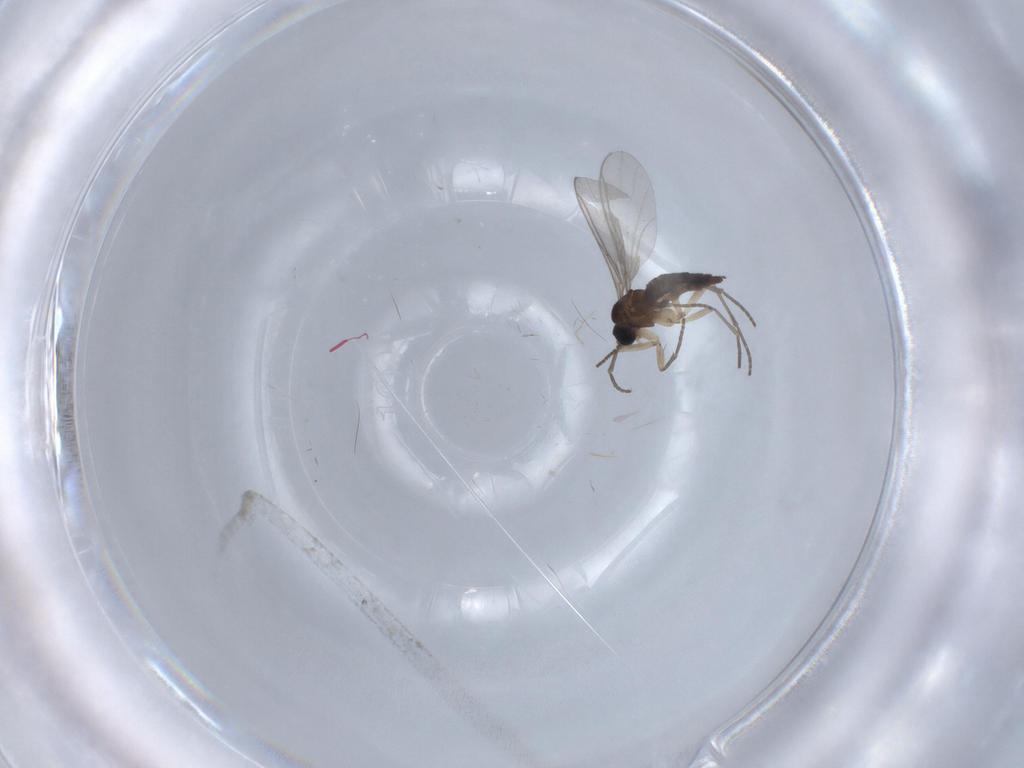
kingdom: Animalia
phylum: Arthropoda
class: Insecta
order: Diptera
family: Sciaridae
